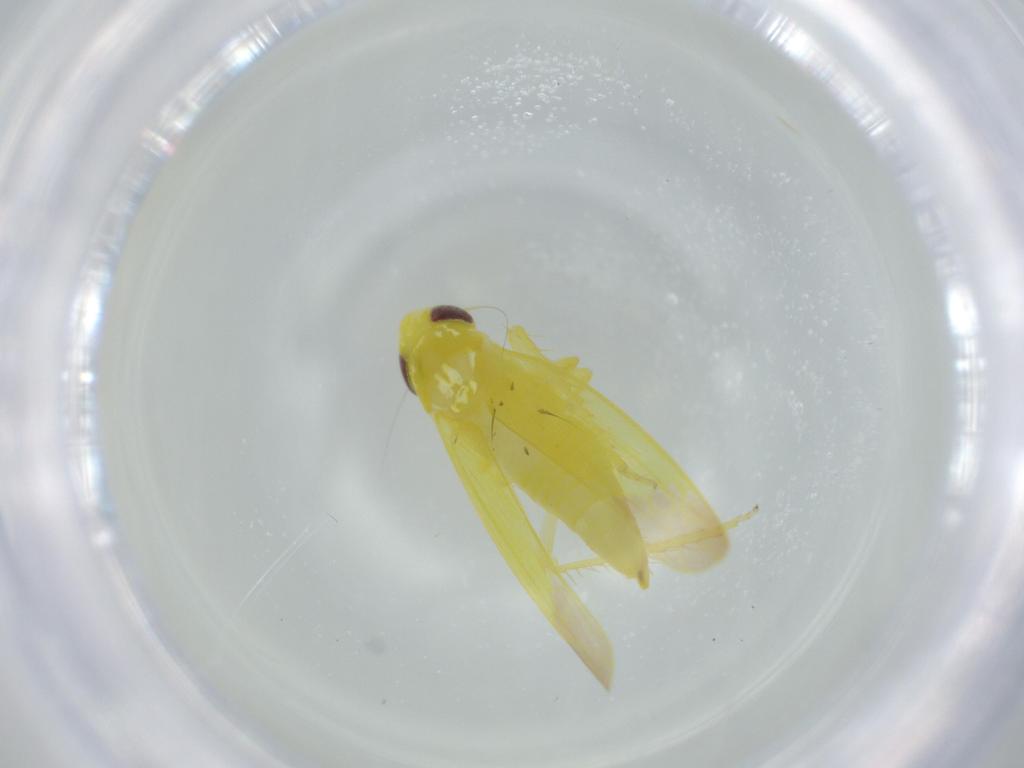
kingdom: Animalia
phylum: Arthropoda
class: Insecta
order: Hemiptera
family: Cicadellidae
